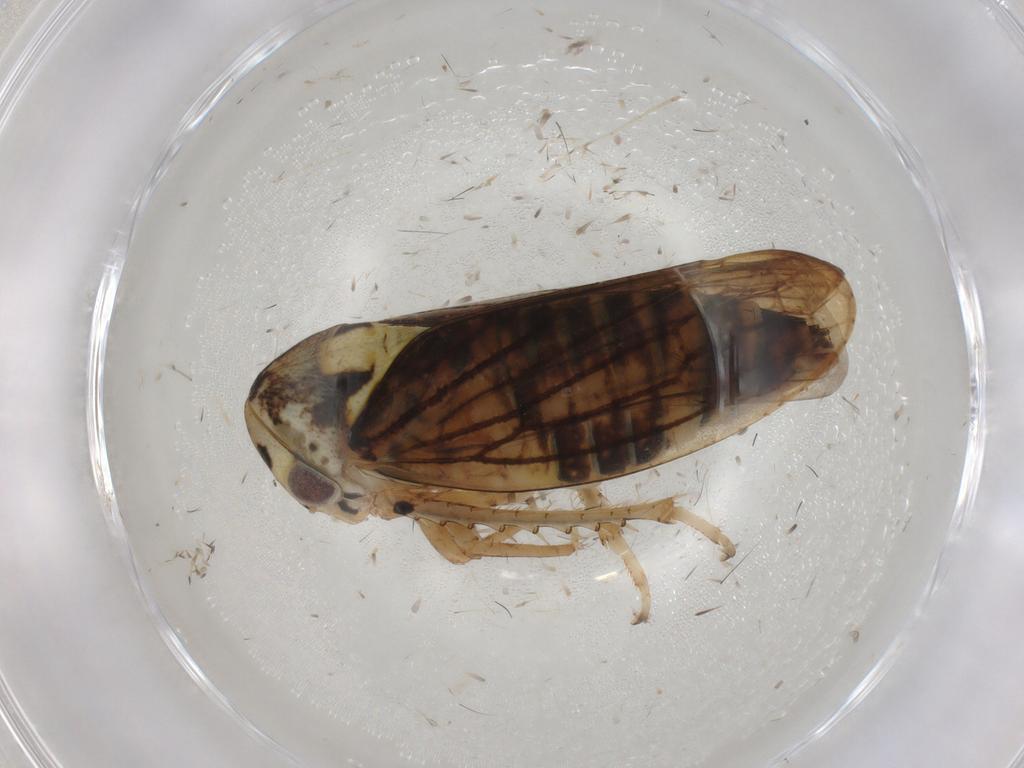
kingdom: Animalia
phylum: Arthropoda
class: Insecta
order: Hemiptera
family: Cicadellidae
